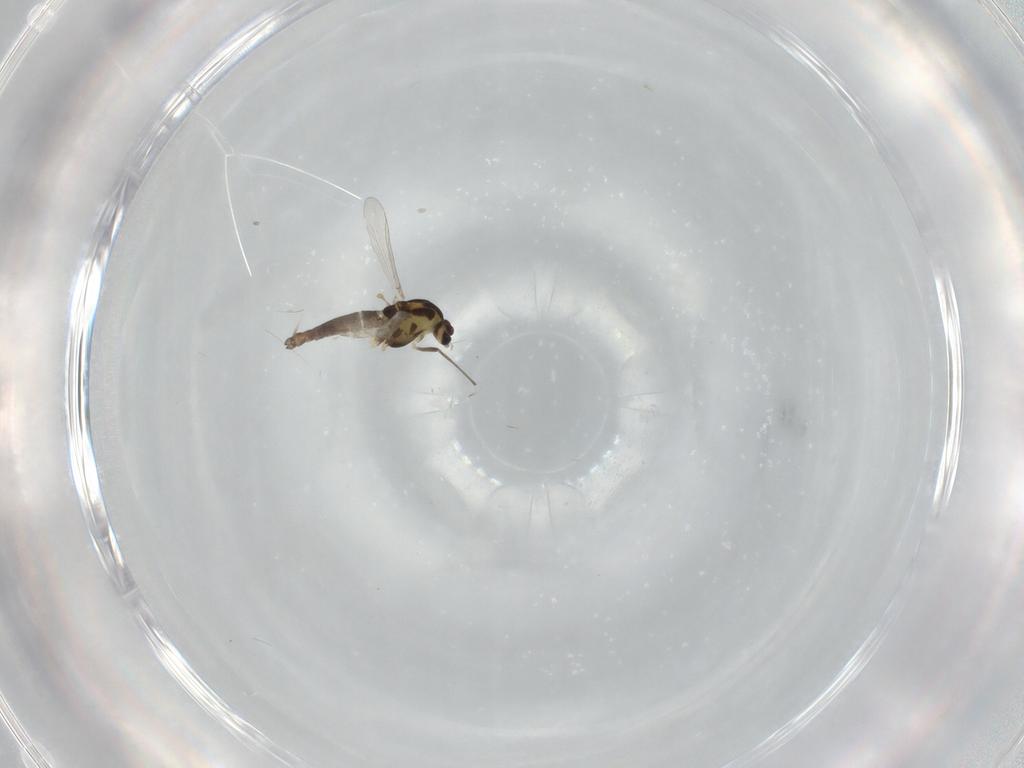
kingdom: Animalia
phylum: Arthropoda
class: Insecta
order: Diptera
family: Chironomidae
